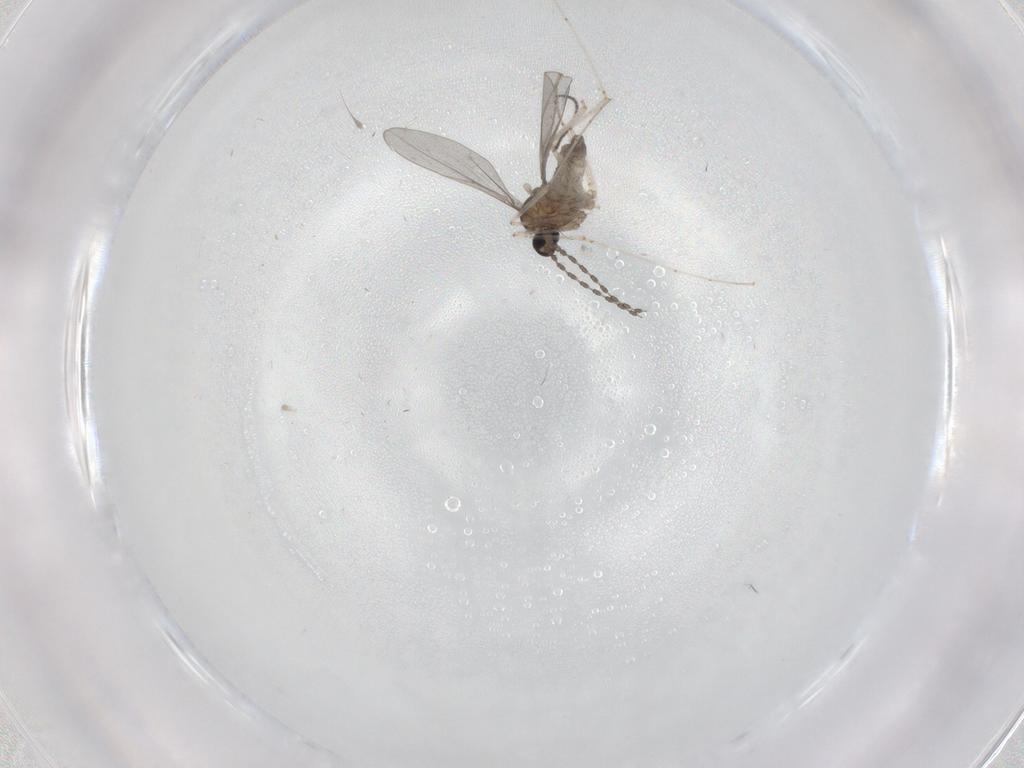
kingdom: Animalia
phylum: Arthropoda
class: Insecta
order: Diptera
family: Cecidomyiidae
